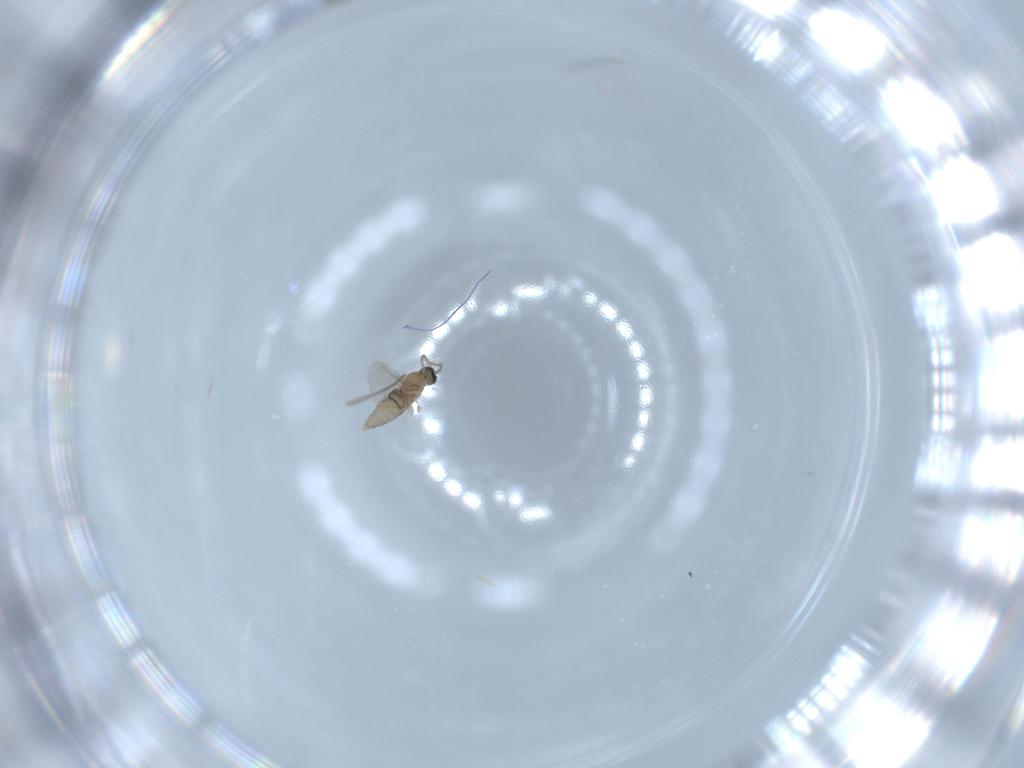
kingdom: Animalia
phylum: Arthropoda
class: Insecta
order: Diptera
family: Cecidomyiidae
